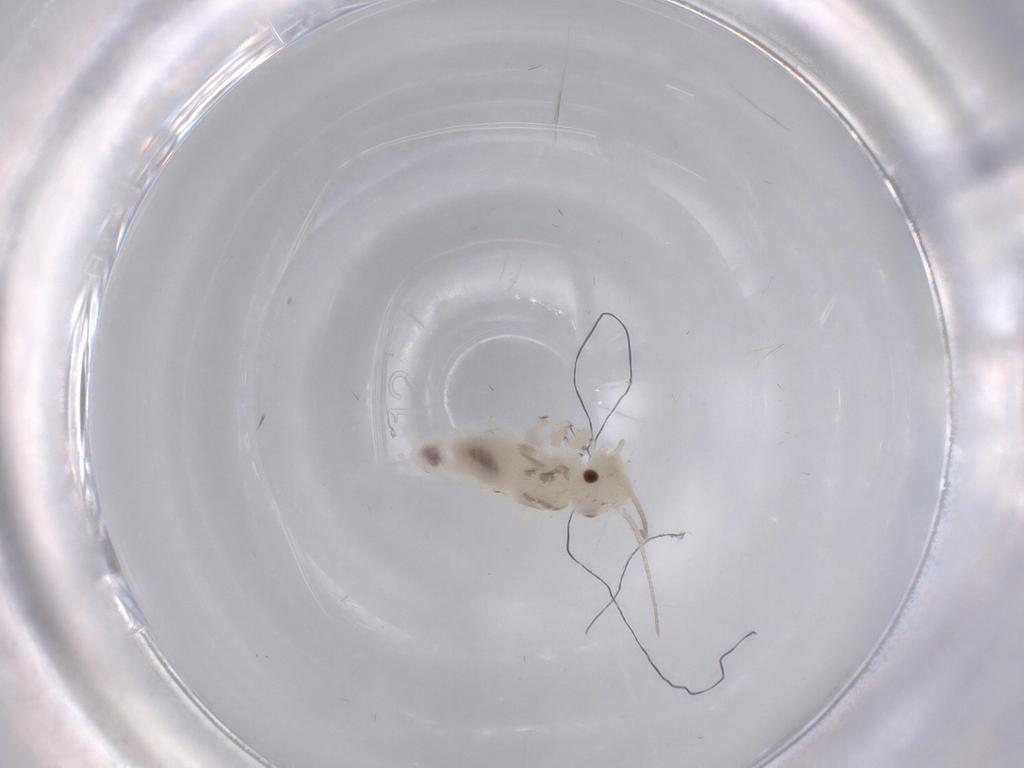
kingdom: Animalia
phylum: Arthropoda
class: Insecta
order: Psocodea
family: Caeciliusidae
